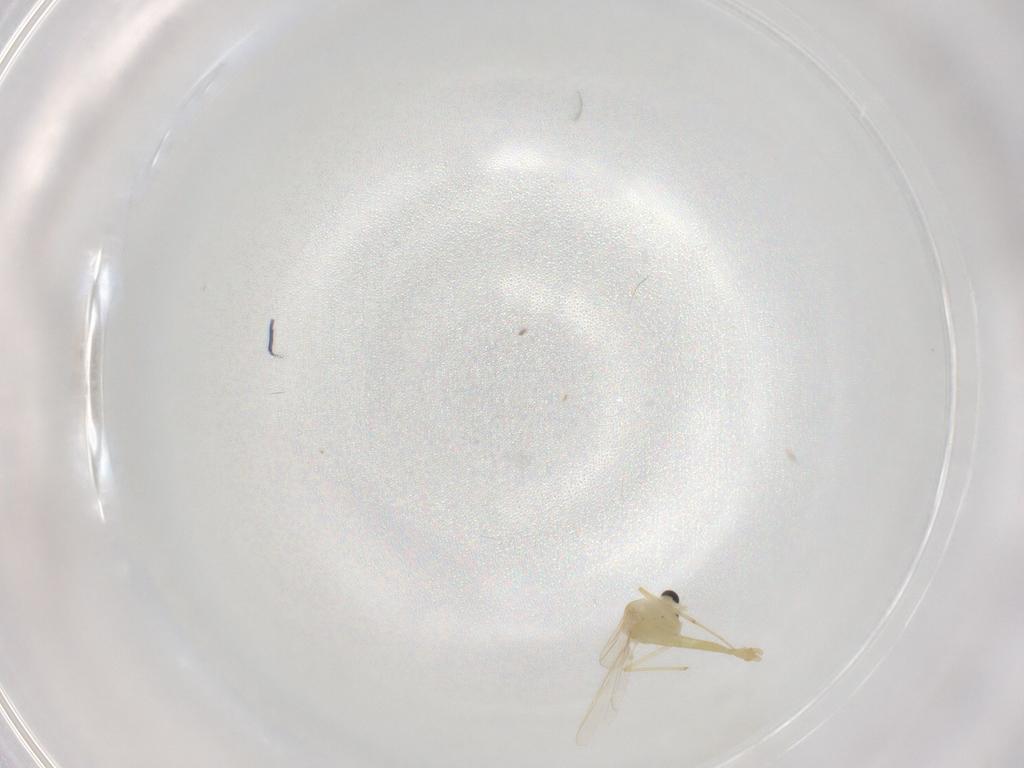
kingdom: Animalia
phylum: Arthropoda
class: Insecta
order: Diptera
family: Chironomidae
